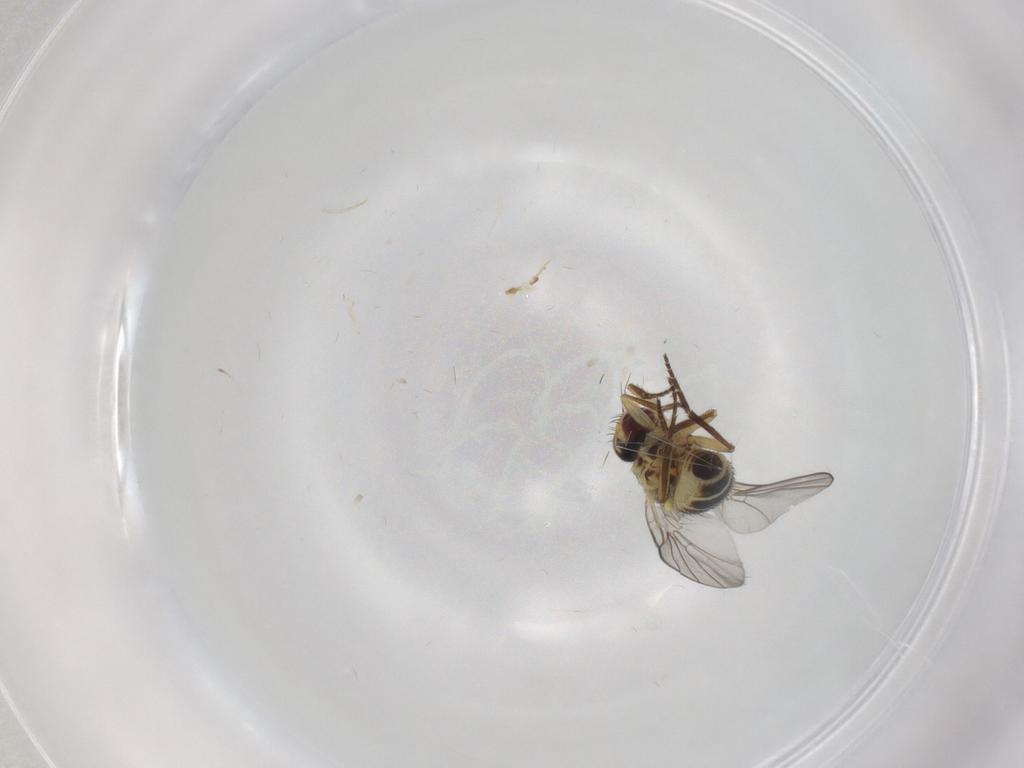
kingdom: Animalia
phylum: Arthropoda
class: Insecta
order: Diptera
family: Agromyzidae
